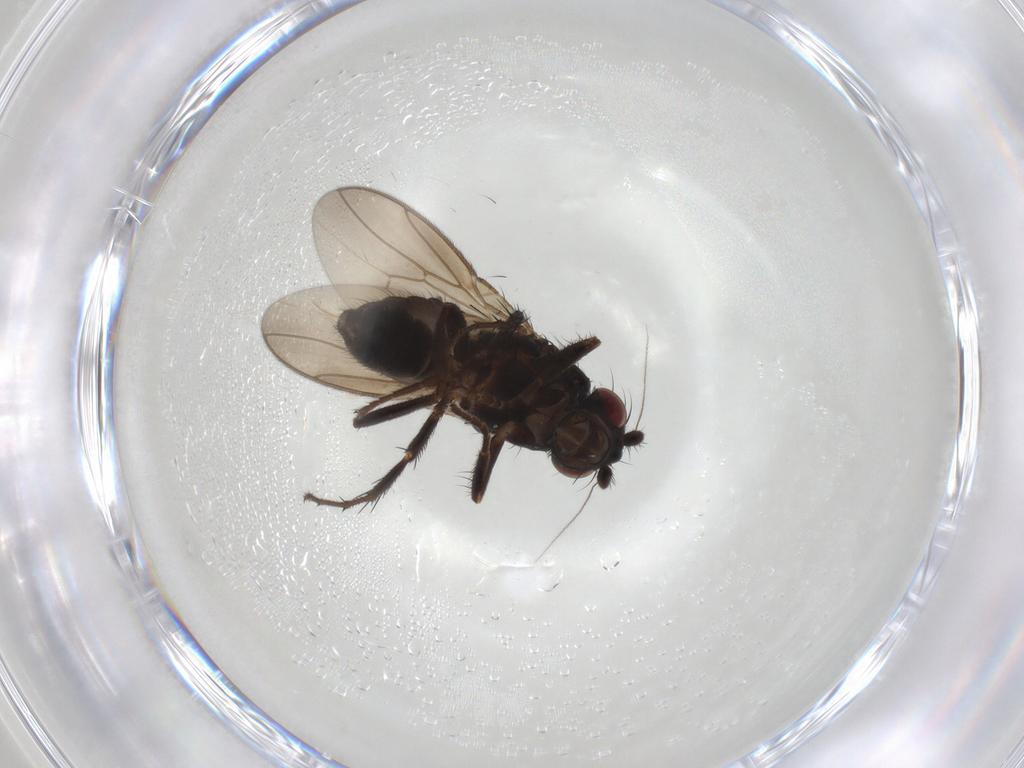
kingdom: Animalia
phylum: Arthropoda
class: Insecta
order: Diptera
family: Sphaeroceridae
